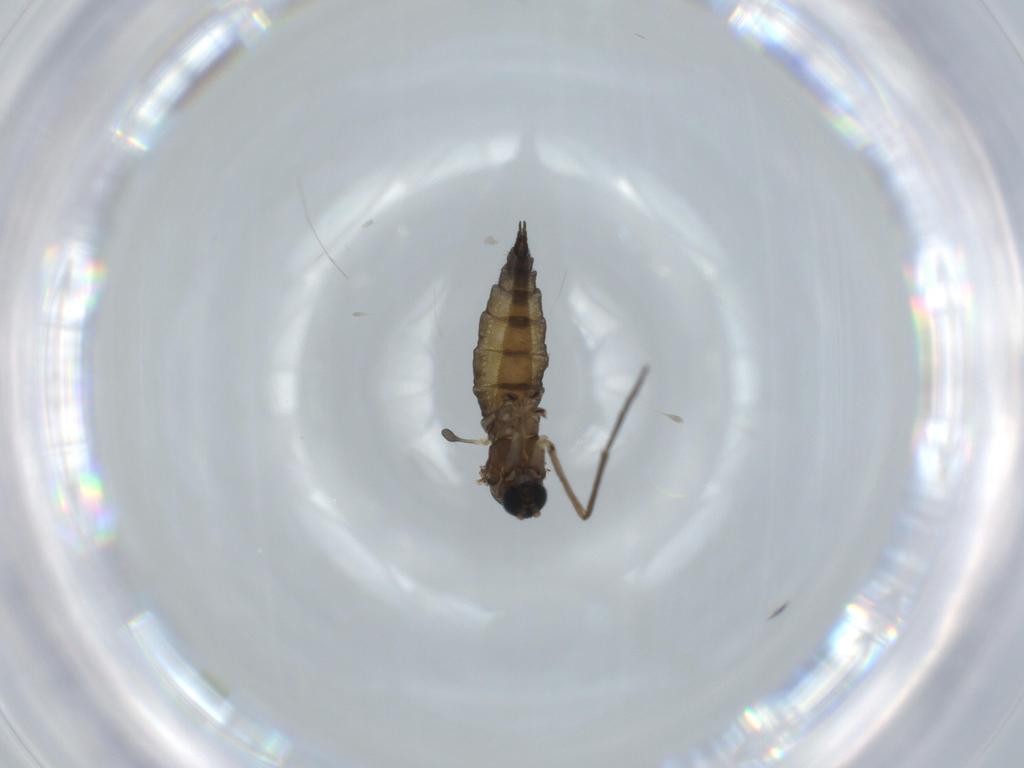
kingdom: Animalia
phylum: Arthropoda
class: Insecta
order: Diptera
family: Sciaridae
